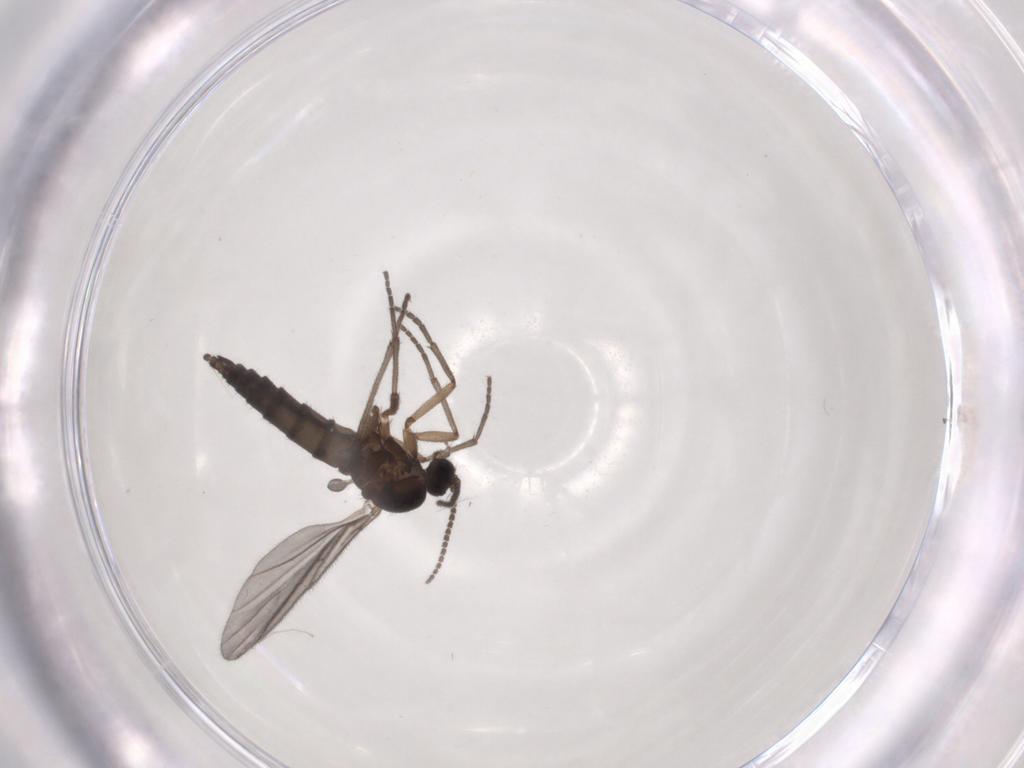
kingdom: Animalia
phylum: Arthropoda
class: Insecta
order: Diptera
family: Sciaridae
